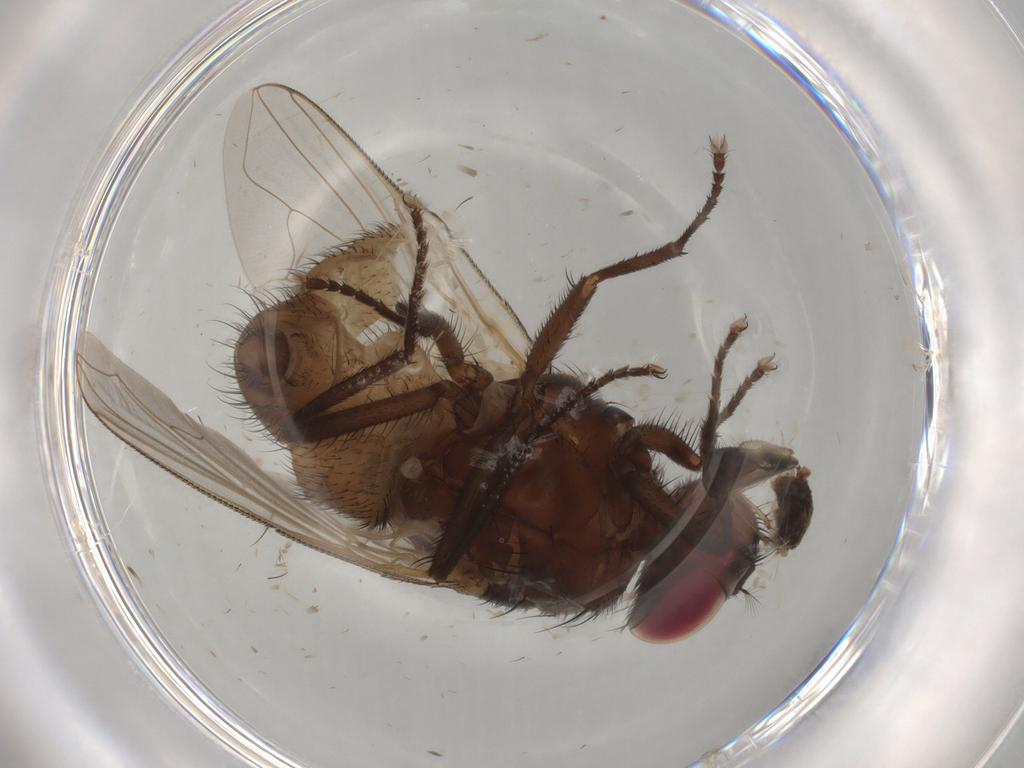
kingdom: Animalia
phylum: Arthropoda
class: Insecta
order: Diptera
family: Muscidae
